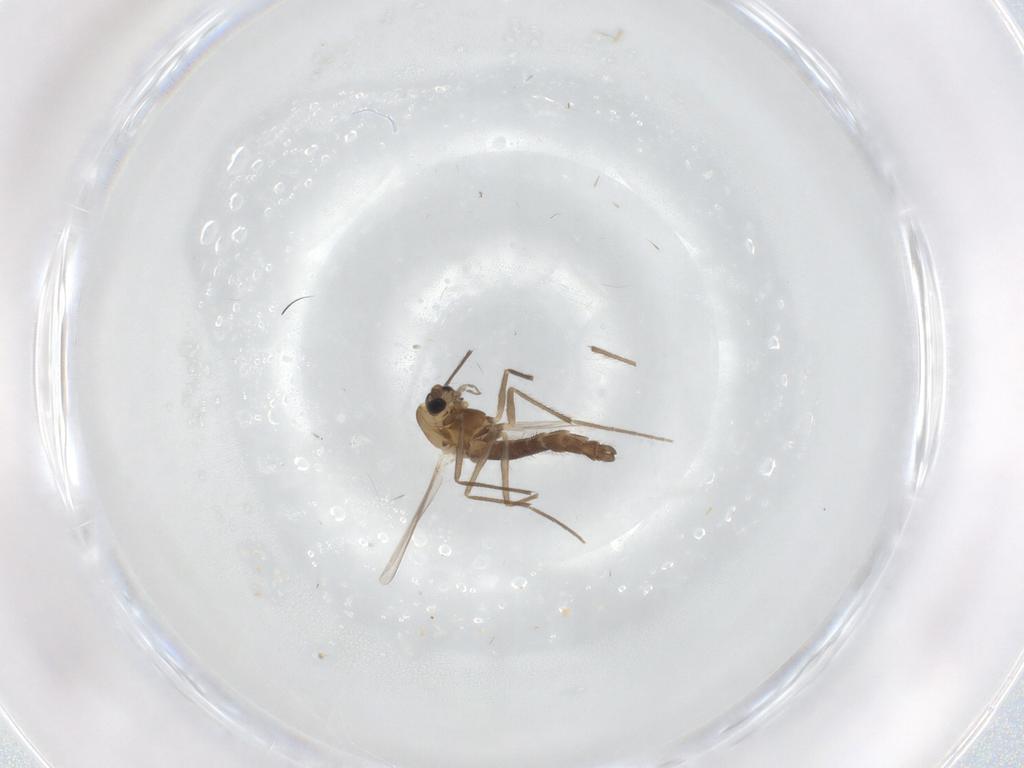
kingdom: Animalia
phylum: Arthropoda
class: Insecta
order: Diptera
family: Chironomidae
